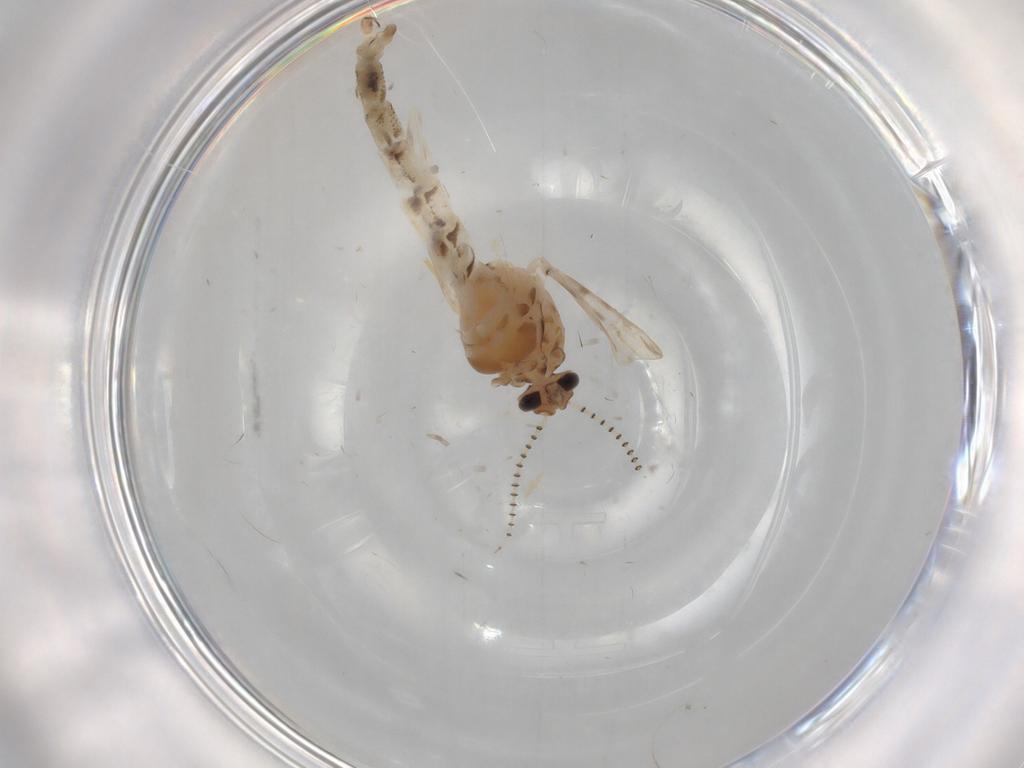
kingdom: Animalia
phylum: Arthropoda
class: Insecta
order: Diptera
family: Chaoboridae
